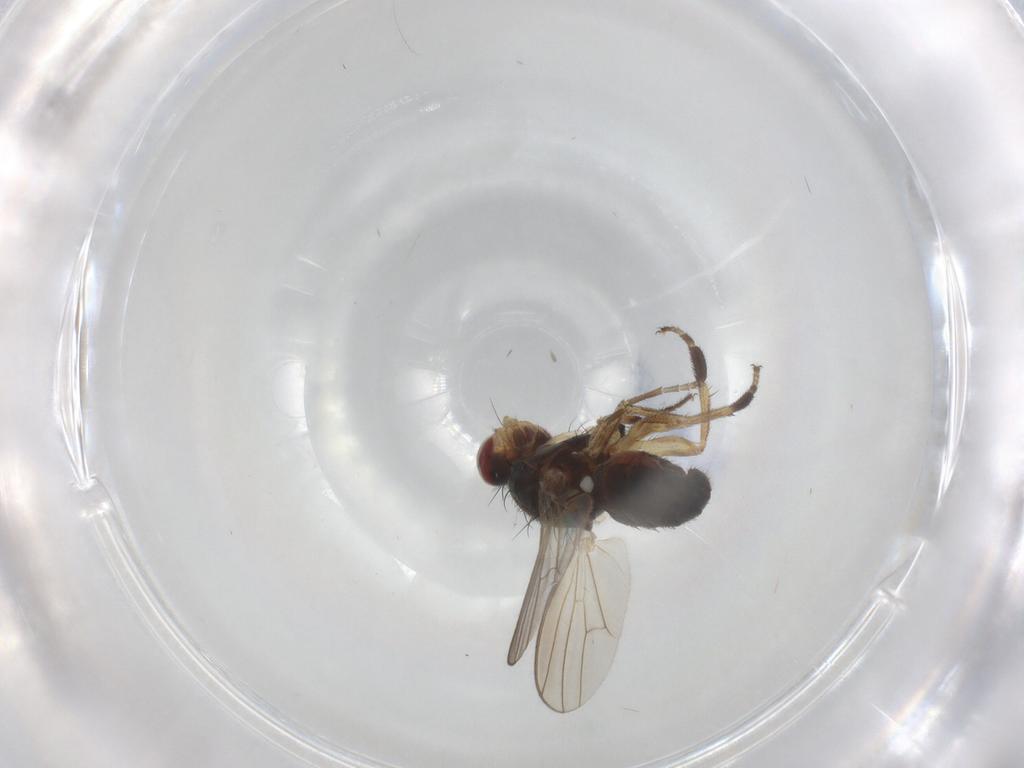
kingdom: Animalia
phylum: Arthropoda
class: Insecta
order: Diptera
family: Heleomyzidae
